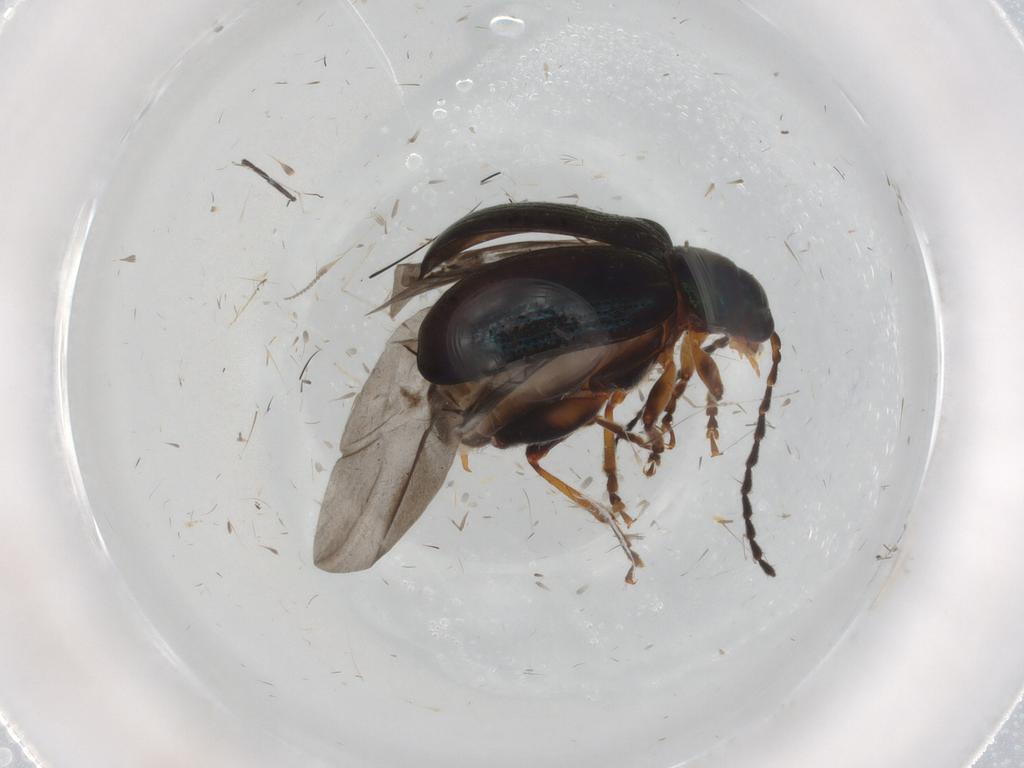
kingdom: Animalia
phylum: Arthropoda
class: Insecta
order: Coleoptera
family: Chrysomelidae
